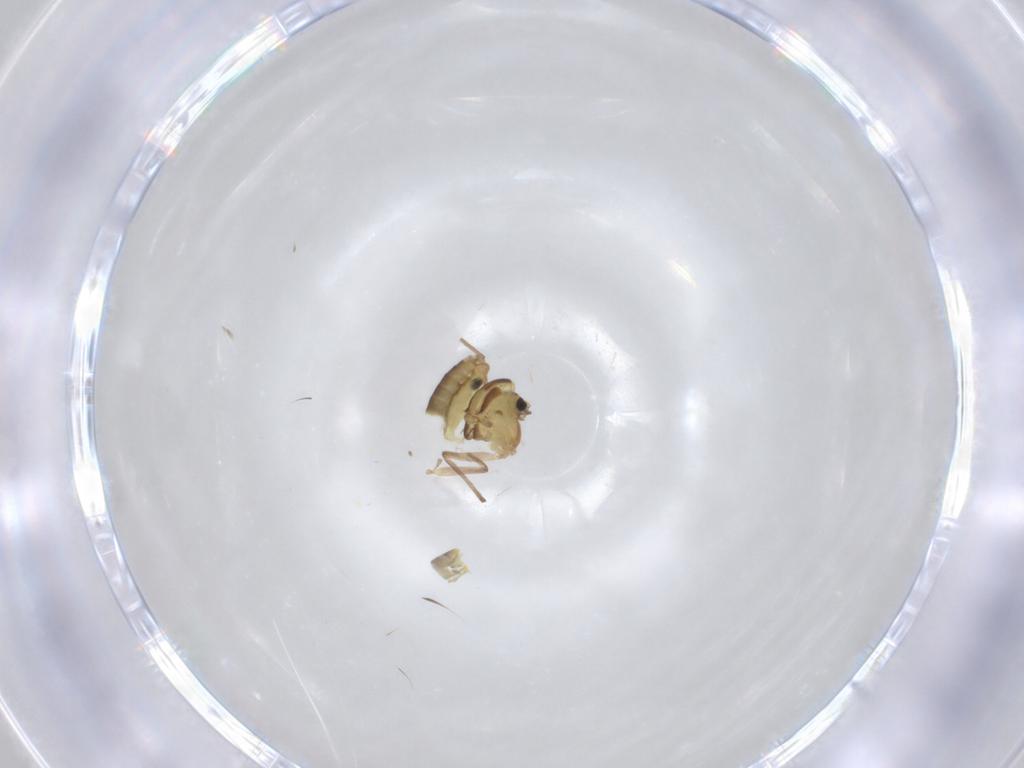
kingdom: Animalia
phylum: Arthropoda
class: Insecta
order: Diptera
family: Chironomidae
